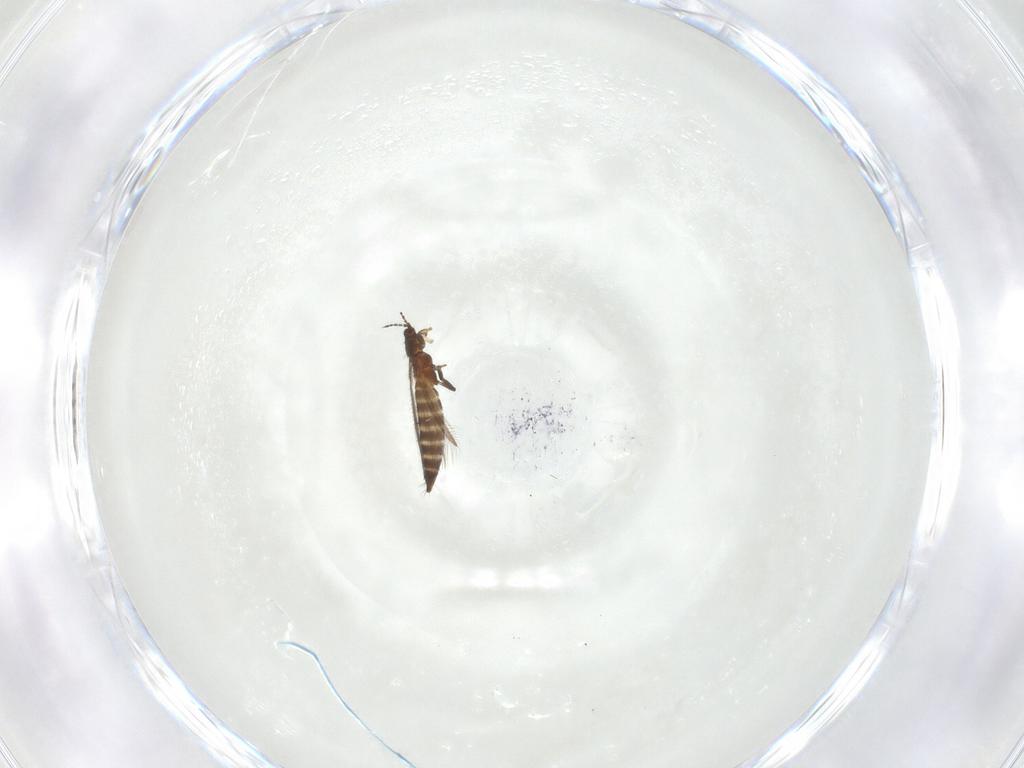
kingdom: Animalia
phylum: Arthropoda
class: Insecta
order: Thysanoptera
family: Thripidae
